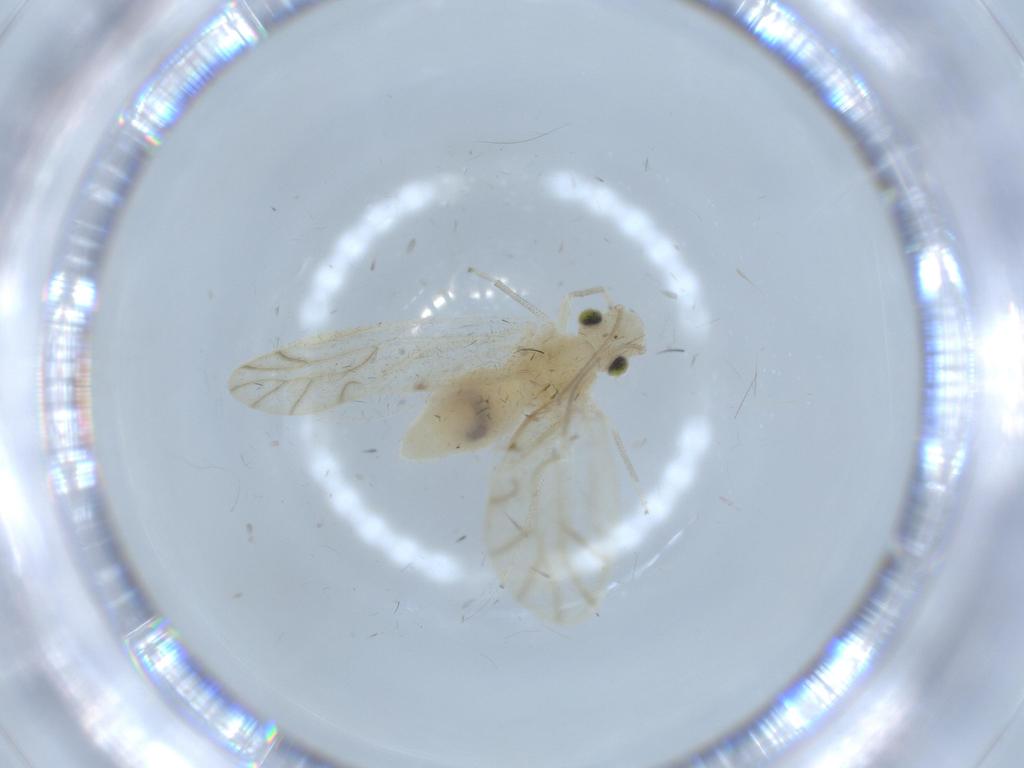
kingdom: Animalia
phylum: Arthropoda
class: Insecta
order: Psocodea
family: Caeciliusidae
